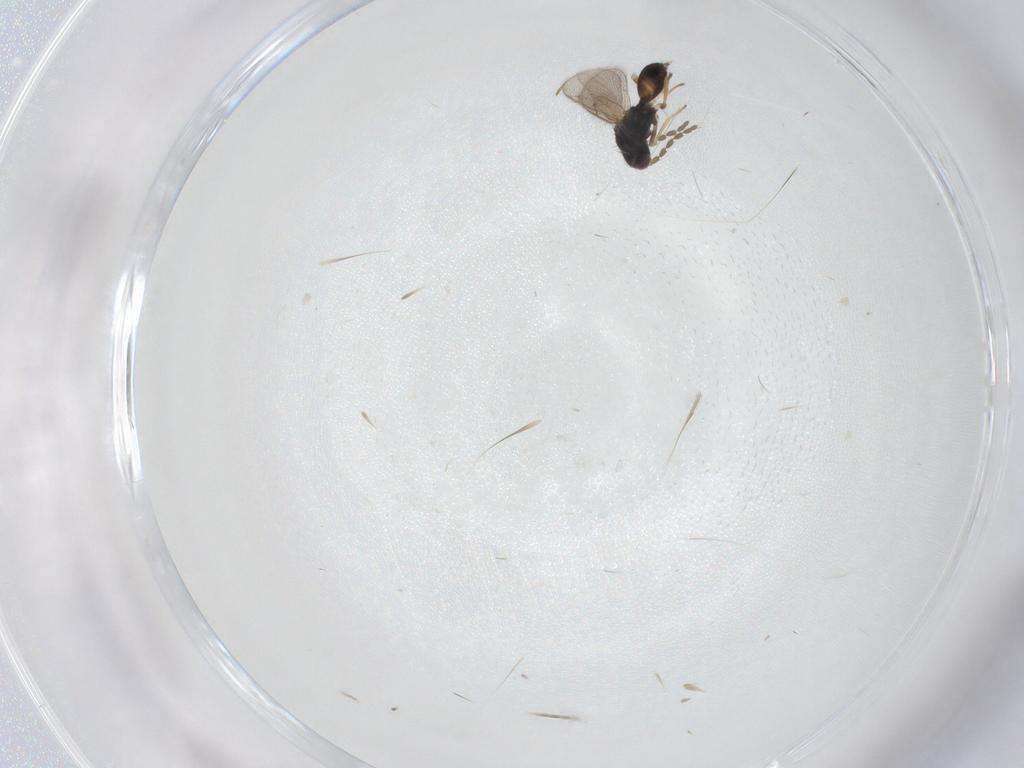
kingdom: Animalia
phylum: Arthropoda
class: Insecta
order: Hymenoptera
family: Eulophidae
